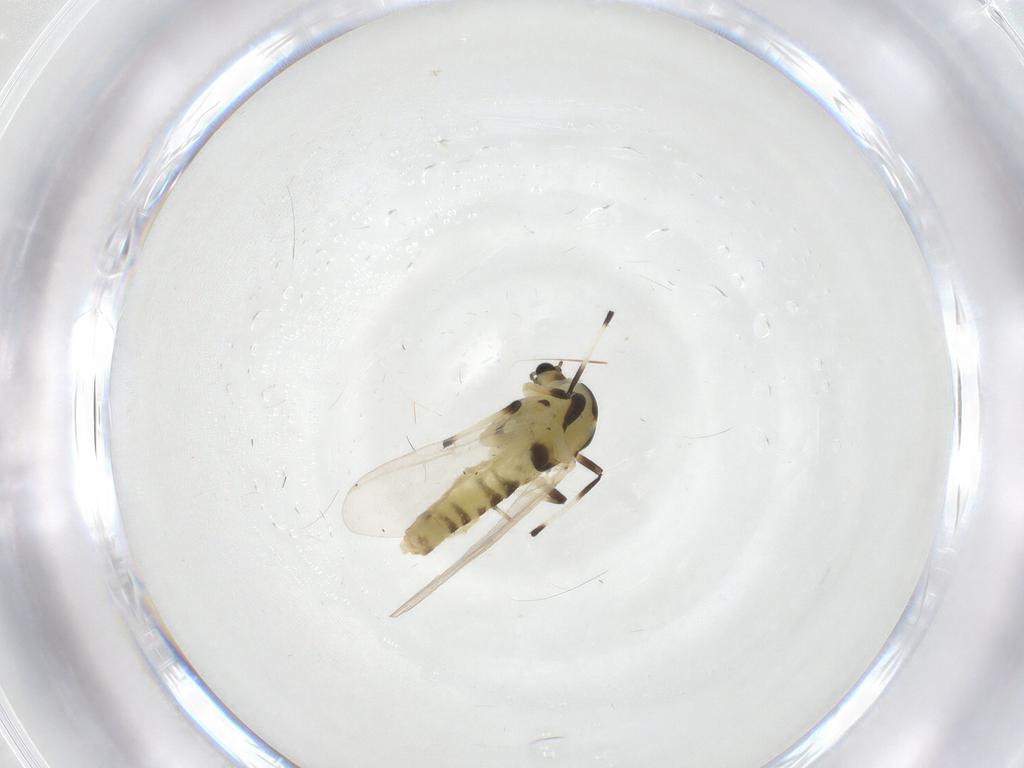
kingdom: Animalia
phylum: Arthropoda
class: Insecta
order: Diptera
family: Chironomidae
